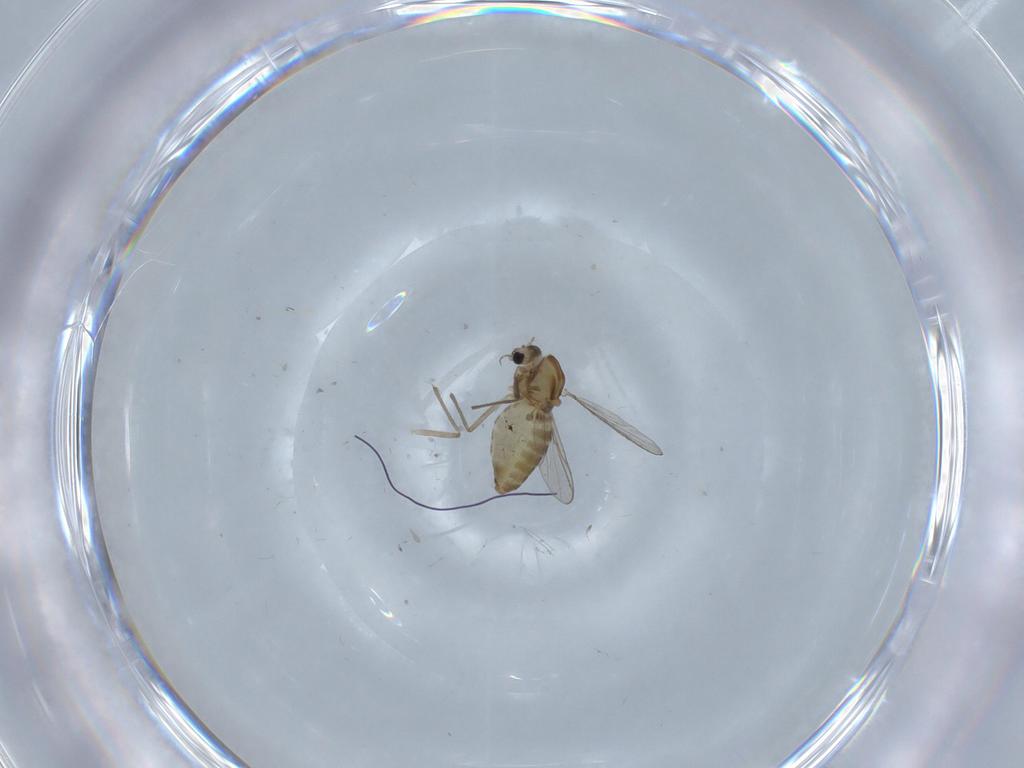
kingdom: Animalia
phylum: Arthropoda
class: Insecta
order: Diptera
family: Chironomidae
